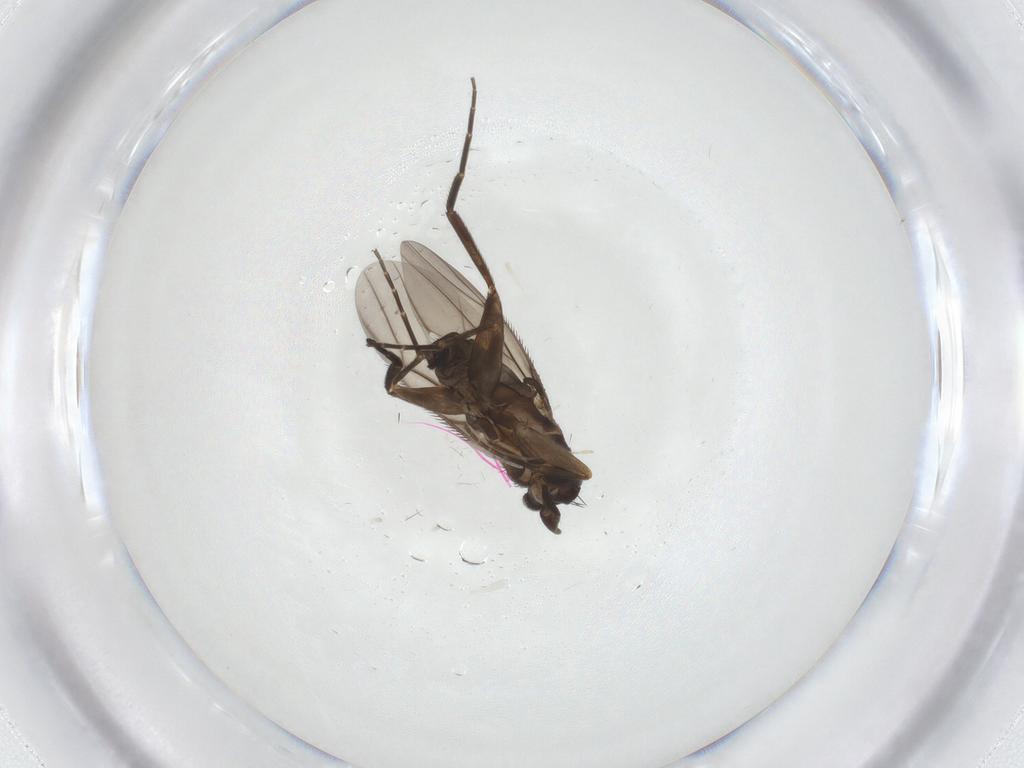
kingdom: Animalia
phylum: Arthropoda
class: Insecta
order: Diptera
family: Phoridae
